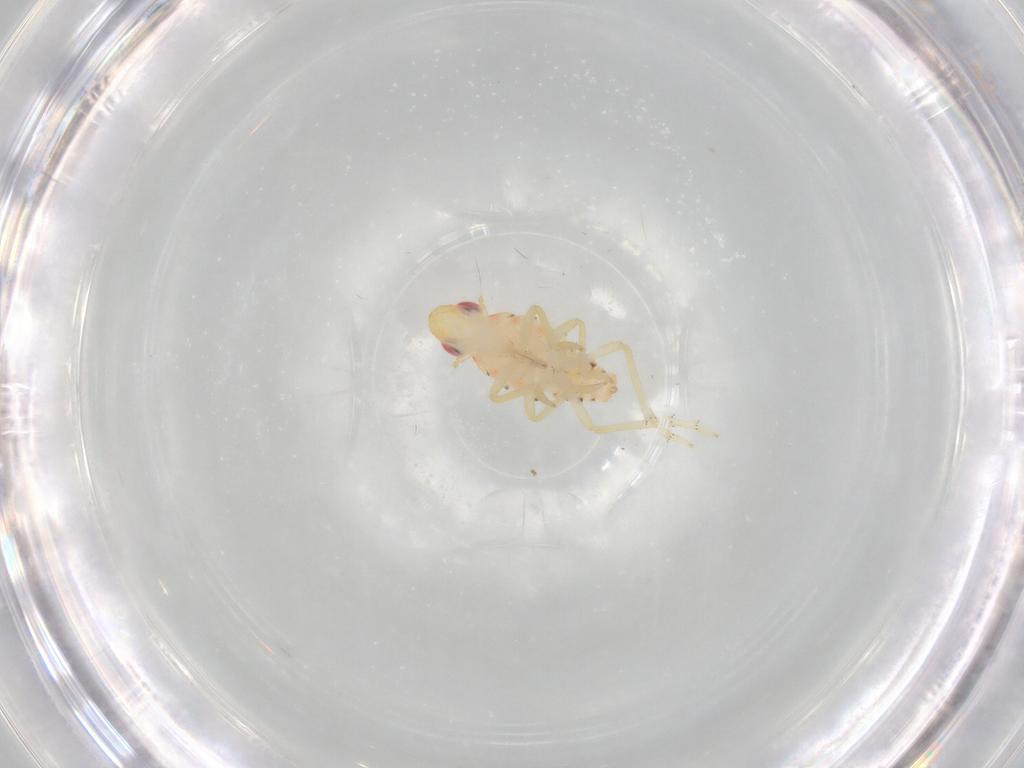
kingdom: Animalia
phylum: Arthropoda
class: Insecta
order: Hemiptera
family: Tropiduchidae
